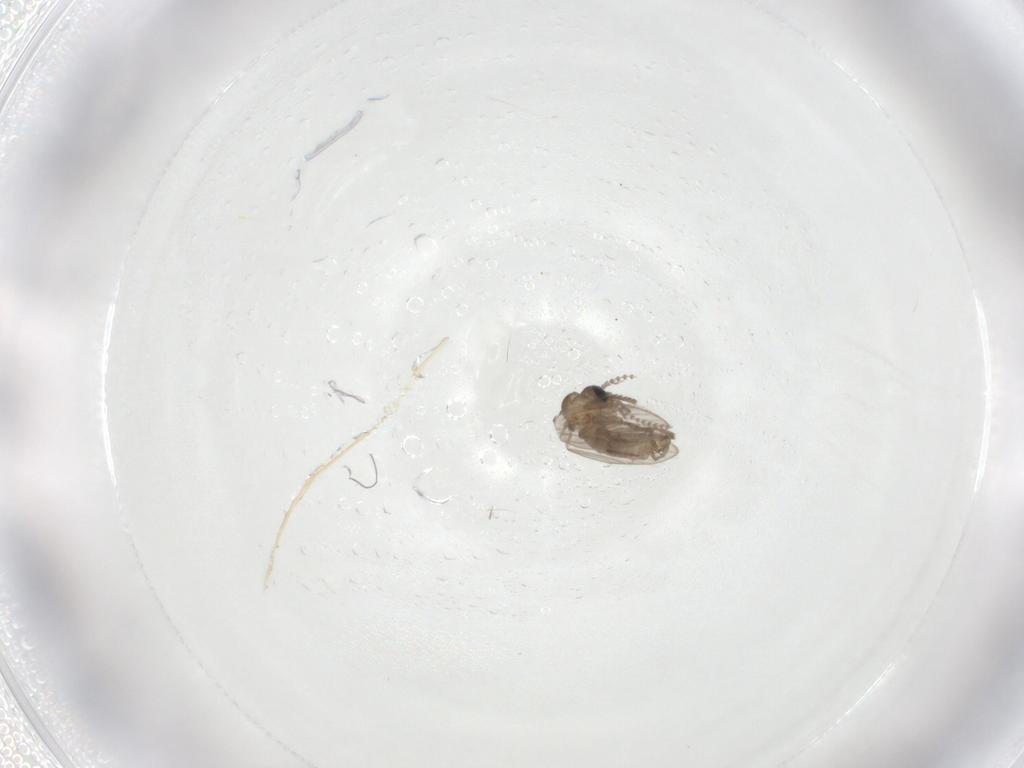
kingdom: Animalia
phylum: Arthropoda
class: Insecta
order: Diptera
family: Psychodidae
